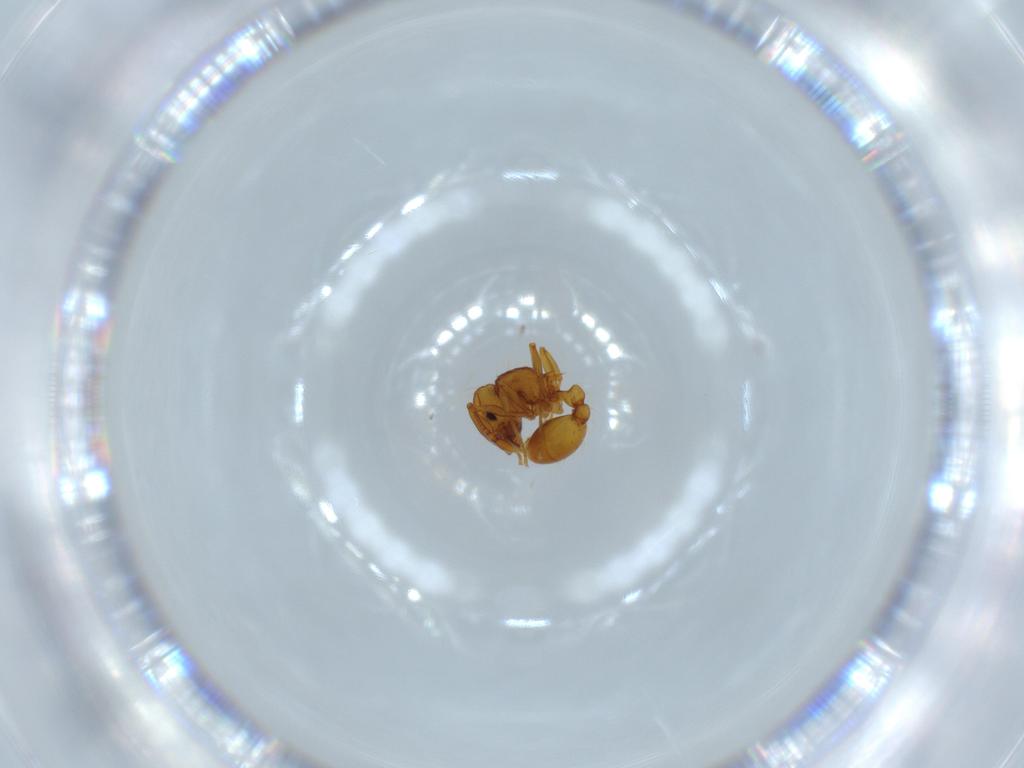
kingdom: Animalia
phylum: Arthropoda
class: Insecta
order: Hymenoptera
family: Formicidae
